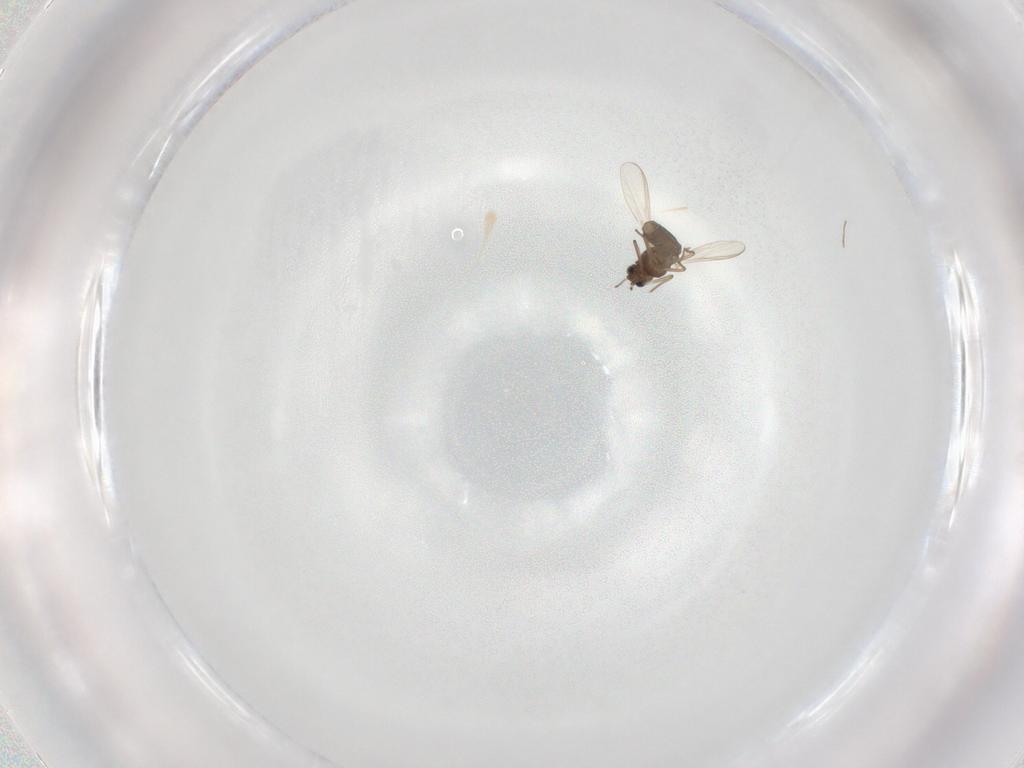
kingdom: Animalia
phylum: Arthropoda
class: Insecta
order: Diptera
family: Chironomidae
